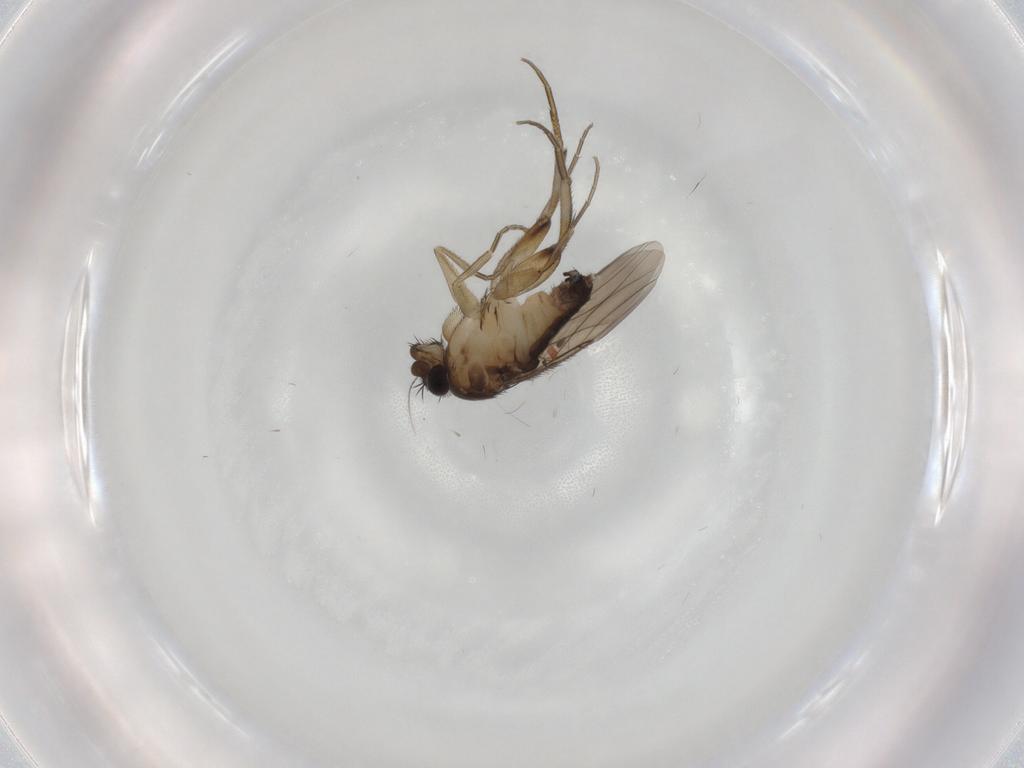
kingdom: Animalia
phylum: Arthropoda
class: Insecta
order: Diptera
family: Phoridae
